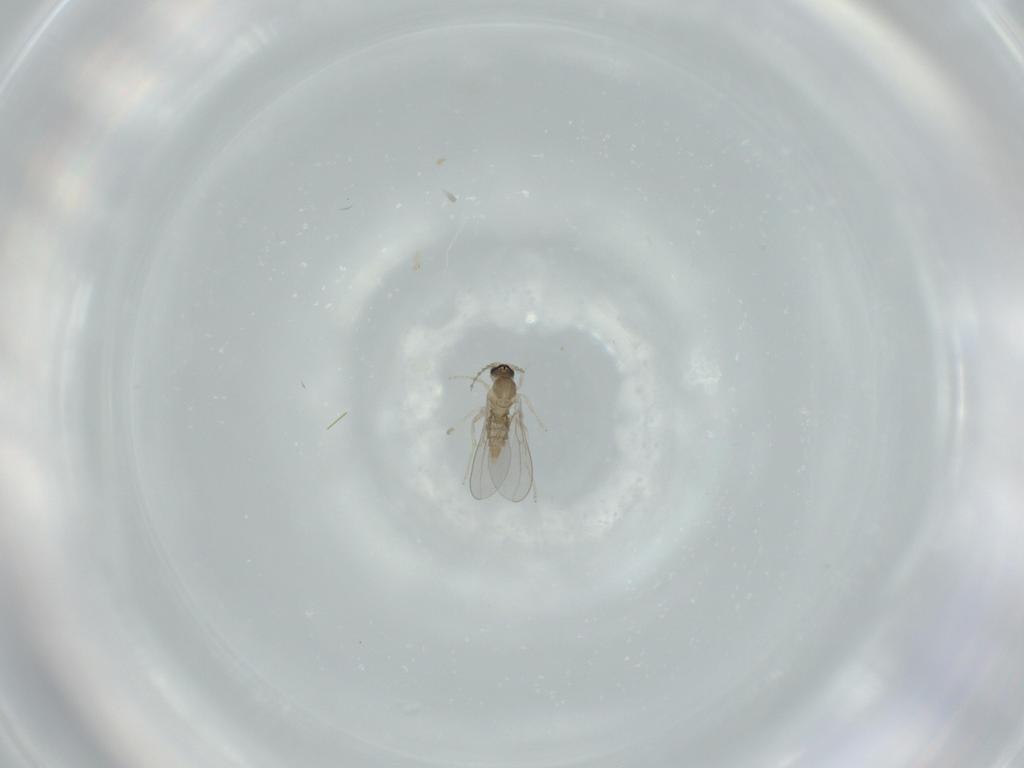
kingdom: Animalia
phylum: Arthropoda
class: Insecta
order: Diptera
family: Cecidomyiidae
